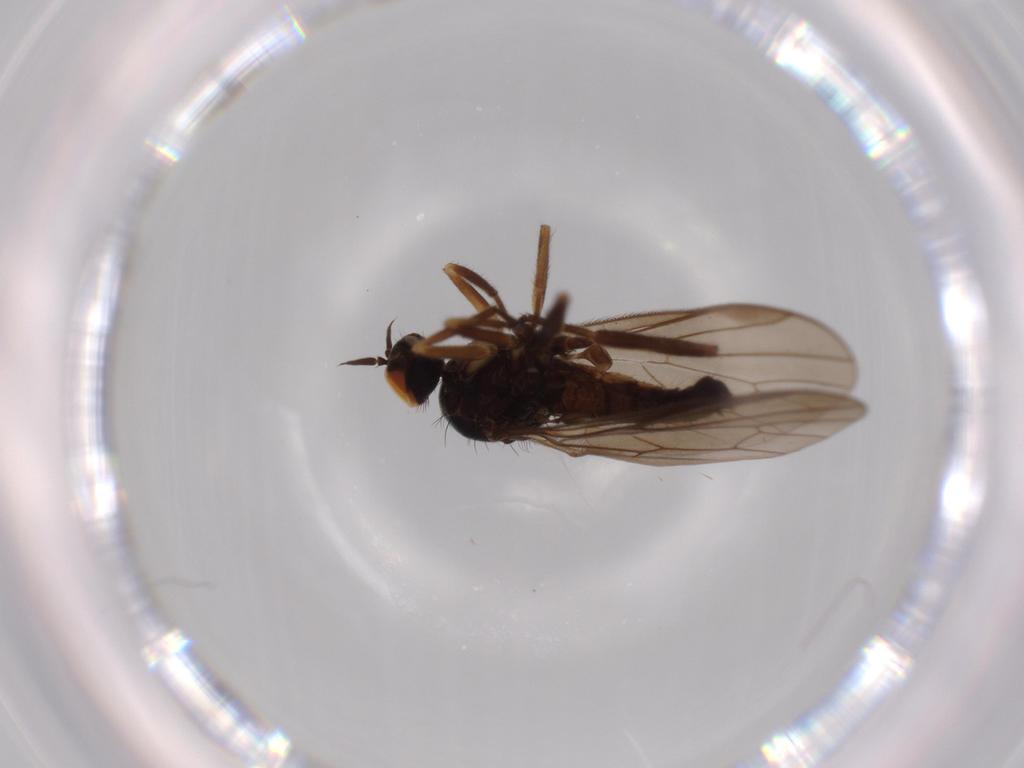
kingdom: Animalia
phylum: Arthropoda
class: Insecta
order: Diptera
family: Hybotidae
